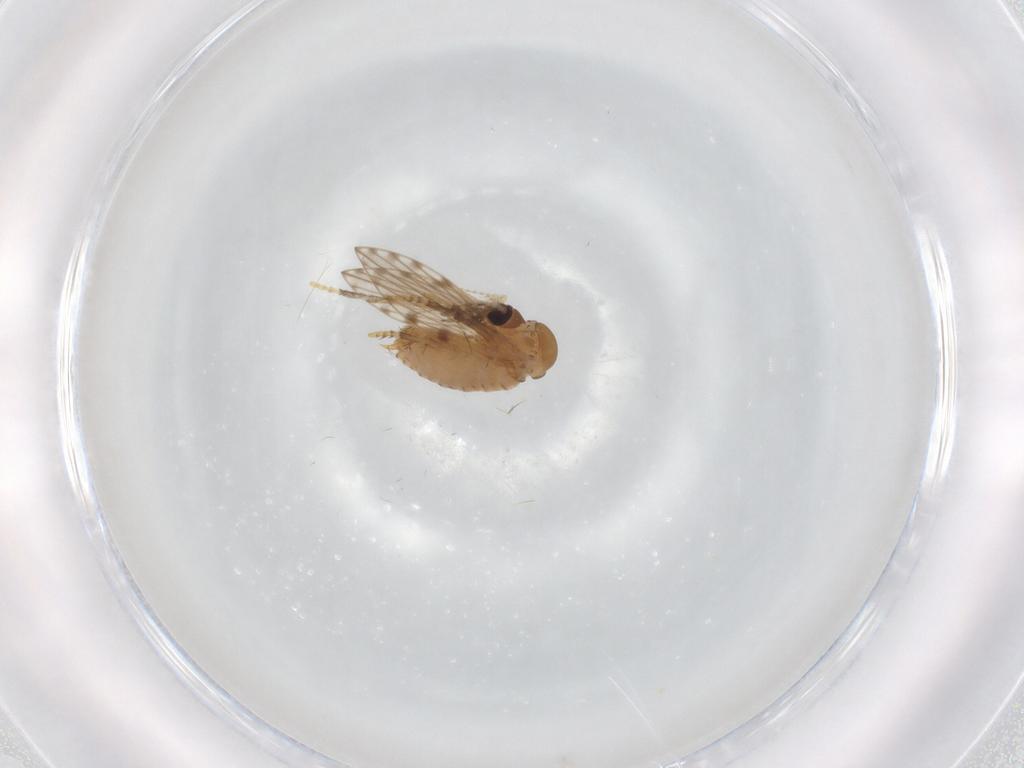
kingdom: Animalia
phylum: Arthropoda
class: Insecta
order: Diptera
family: Psychodidae
